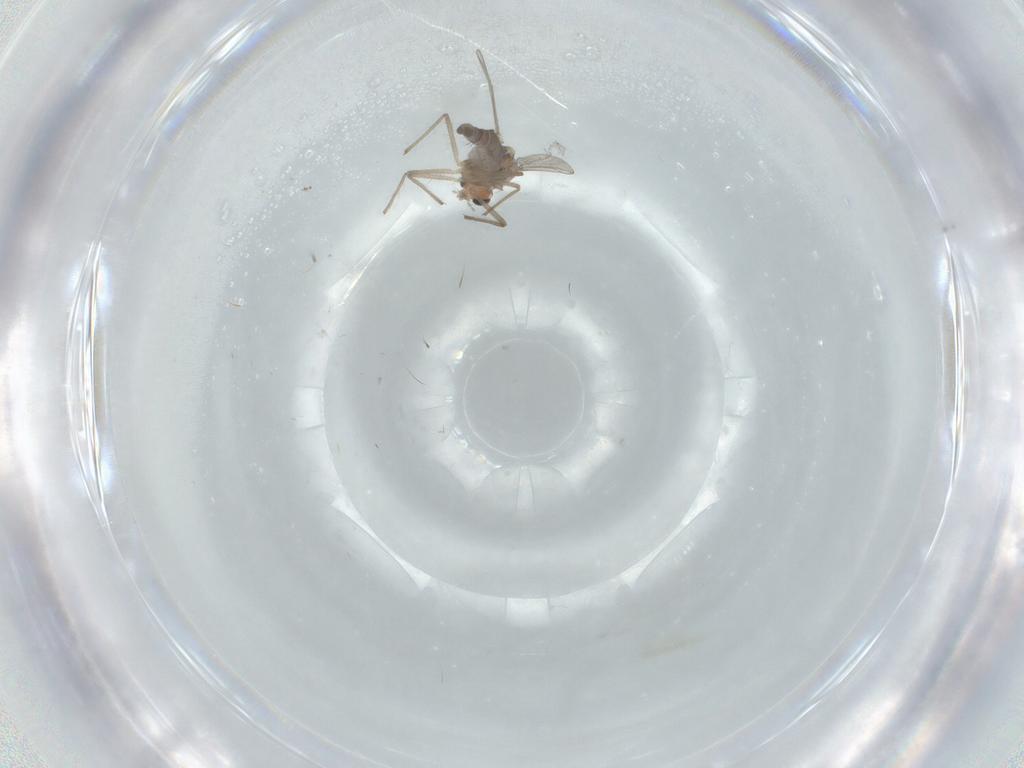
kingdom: Animalia
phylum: Arthropoda
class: Insecta
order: Diptera
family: Chironomidae
